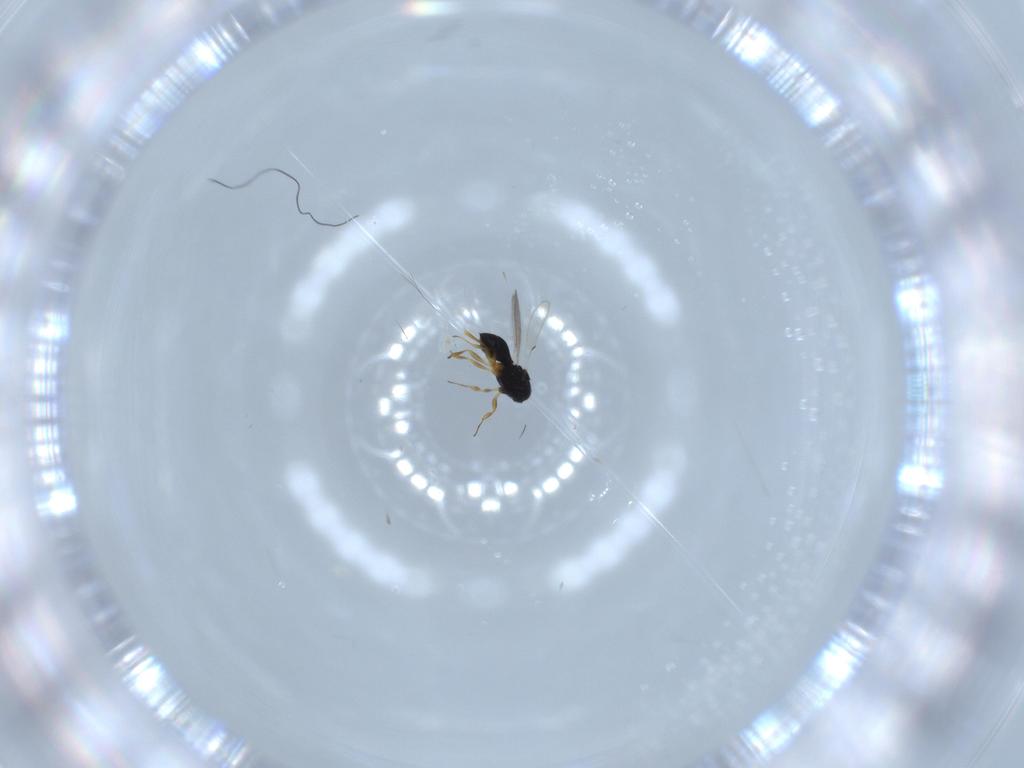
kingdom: Animalia
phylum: Arthropoda
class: Insecta
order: Hymenoptera
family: Scelionidae
